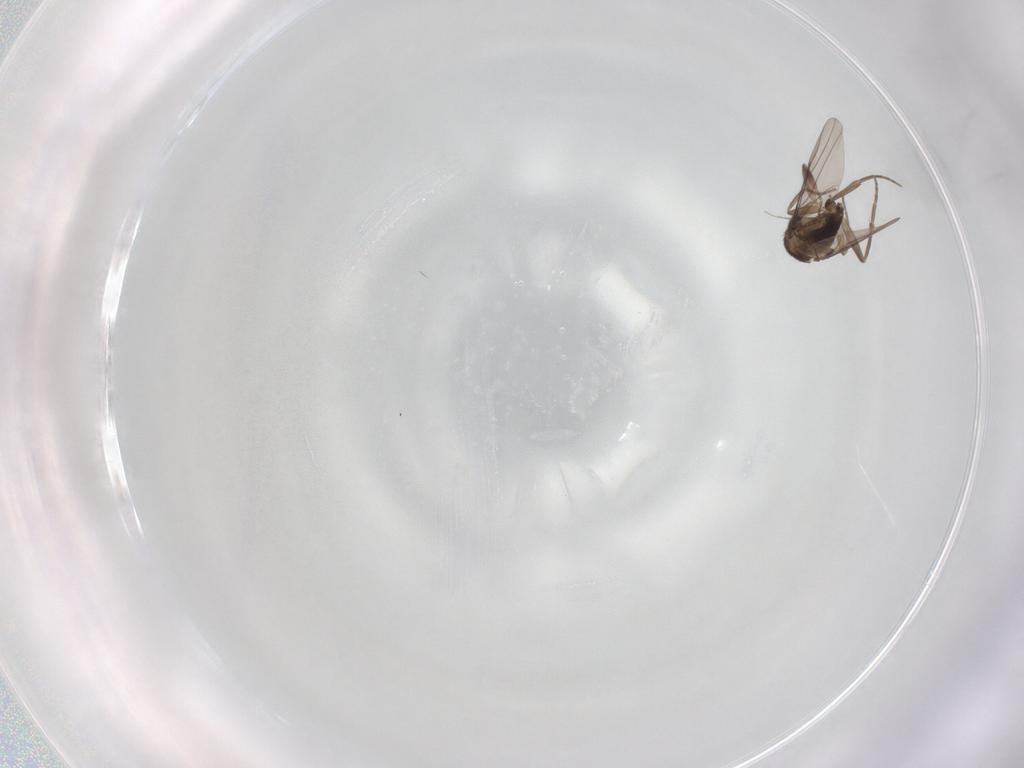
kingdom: Animalia
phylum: Arthropoda
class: Insecta
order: Diptera
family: Phoridae
